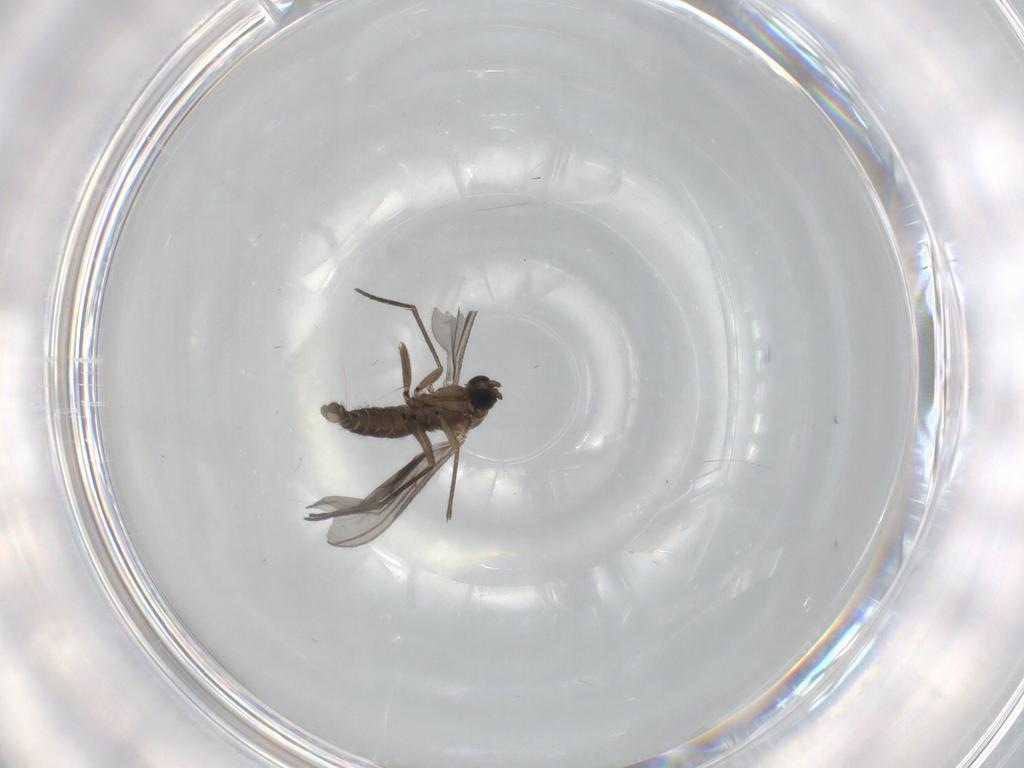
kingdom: Animalia
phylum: Arthropoda
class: Insecta
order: Diptera
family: Sciaridae
